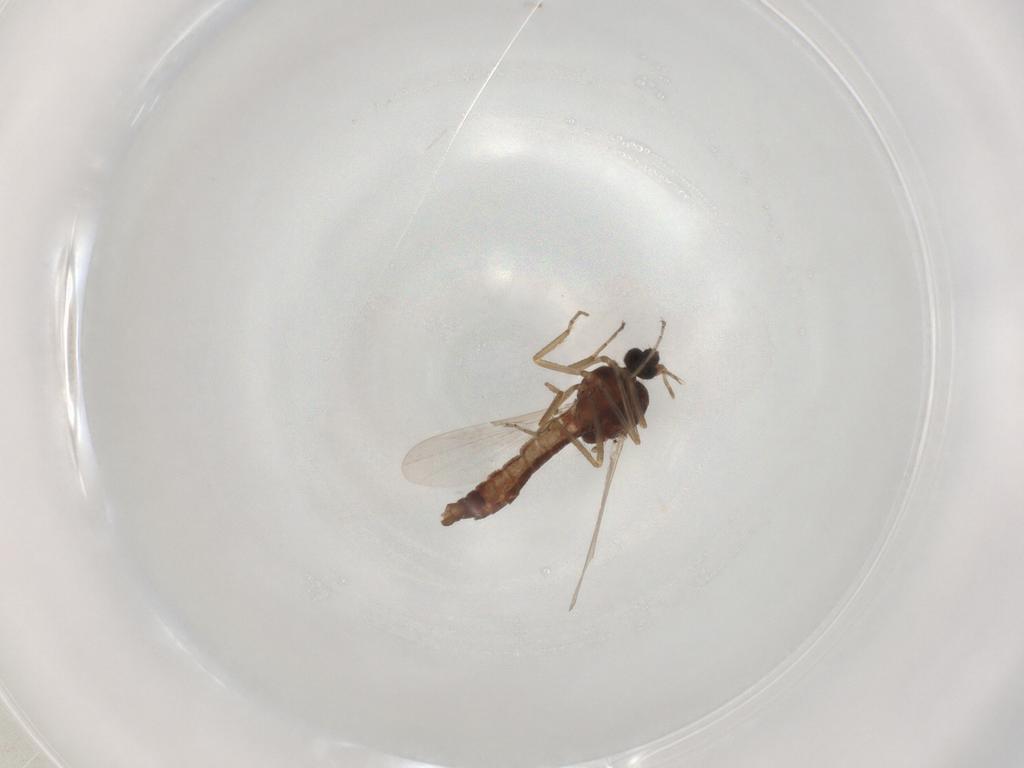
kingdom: Animalia
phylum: Arthropoda
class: Insecta
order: Diptera
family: Ceratopogonidae
